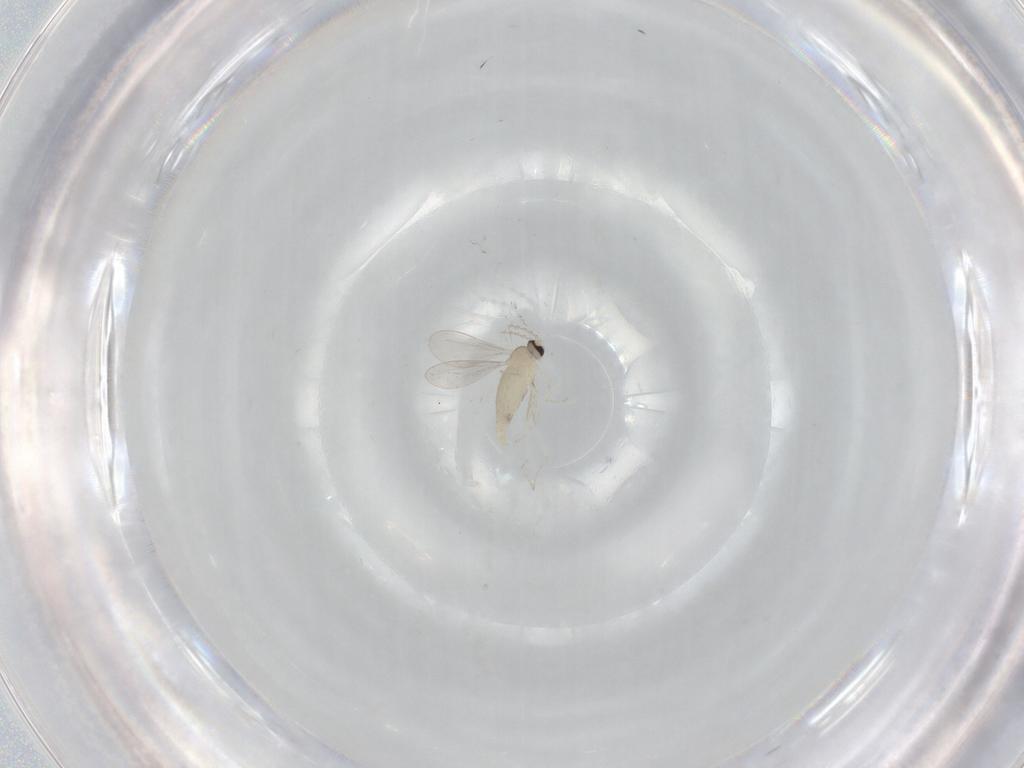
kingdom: Animalia
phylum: Arthropoda
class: Insecta
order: Diptera
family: Cecidomyiidae
